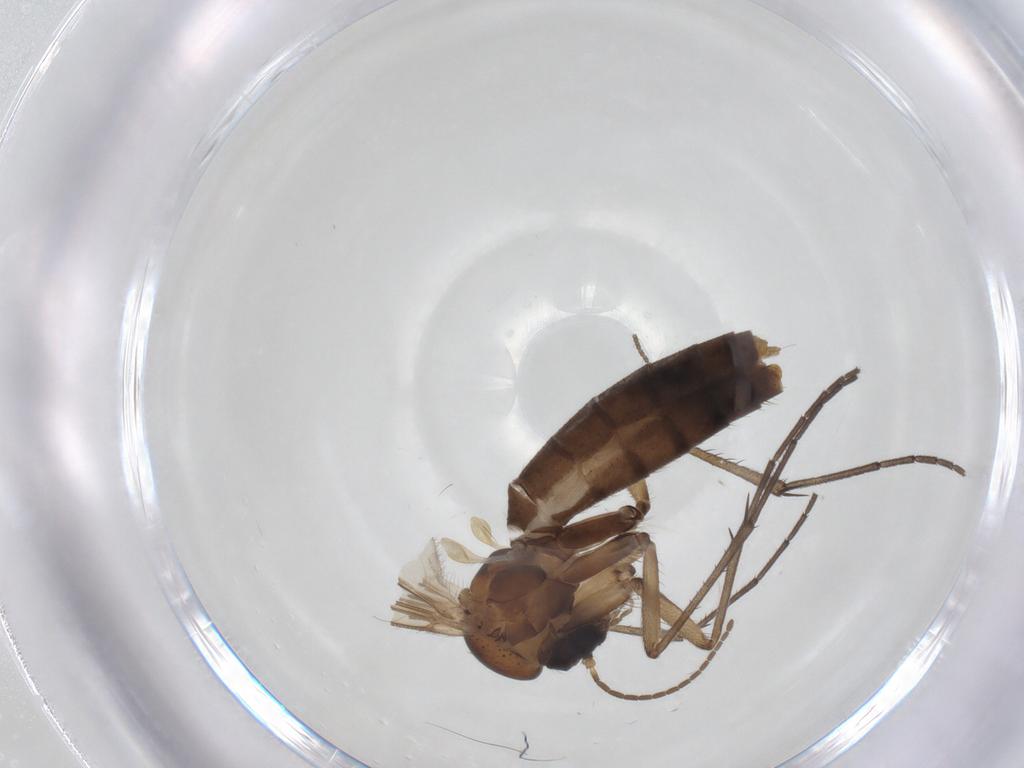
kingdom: Animalia
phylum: Arthropoda
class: Insecta
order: Diptera
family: Mycetophilidae
